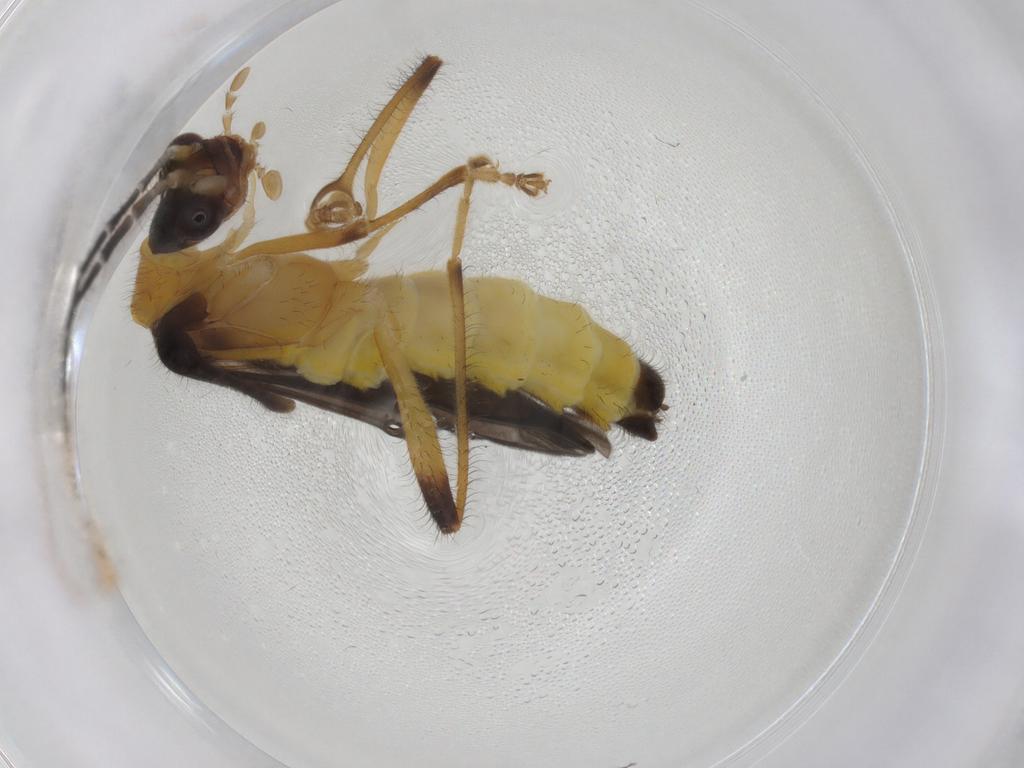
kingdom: Animalia
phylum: Arthropoda
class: Insecta
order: Coleoptera
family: Cantharidae
